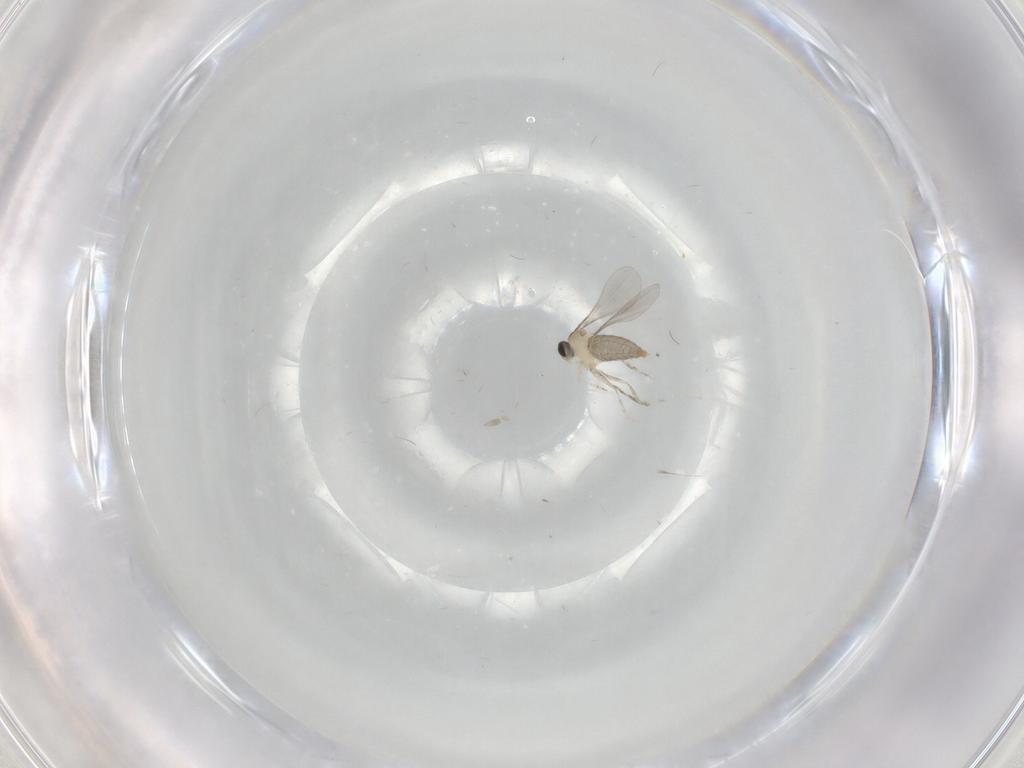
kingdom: Animalia
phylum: Arthropoda
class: Insecta
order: Diptera
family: Cecidomyiidae
